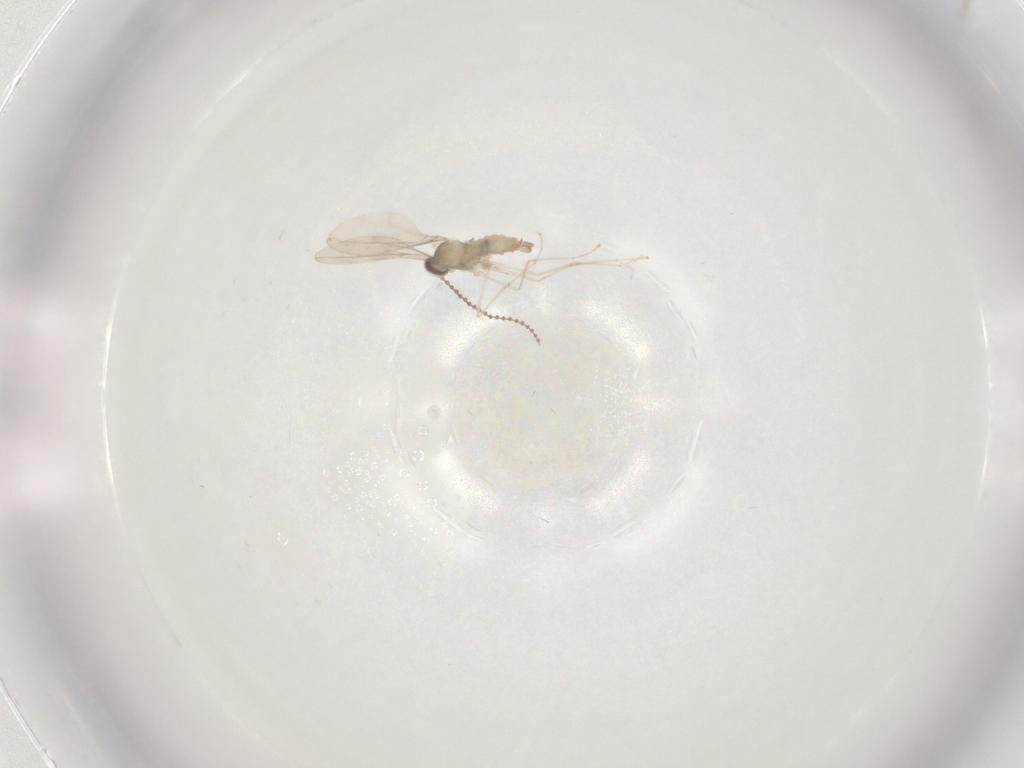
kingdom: Animalia
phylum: Arthropoda
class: Insecta
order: Diptera
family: Cecidomyiidae
